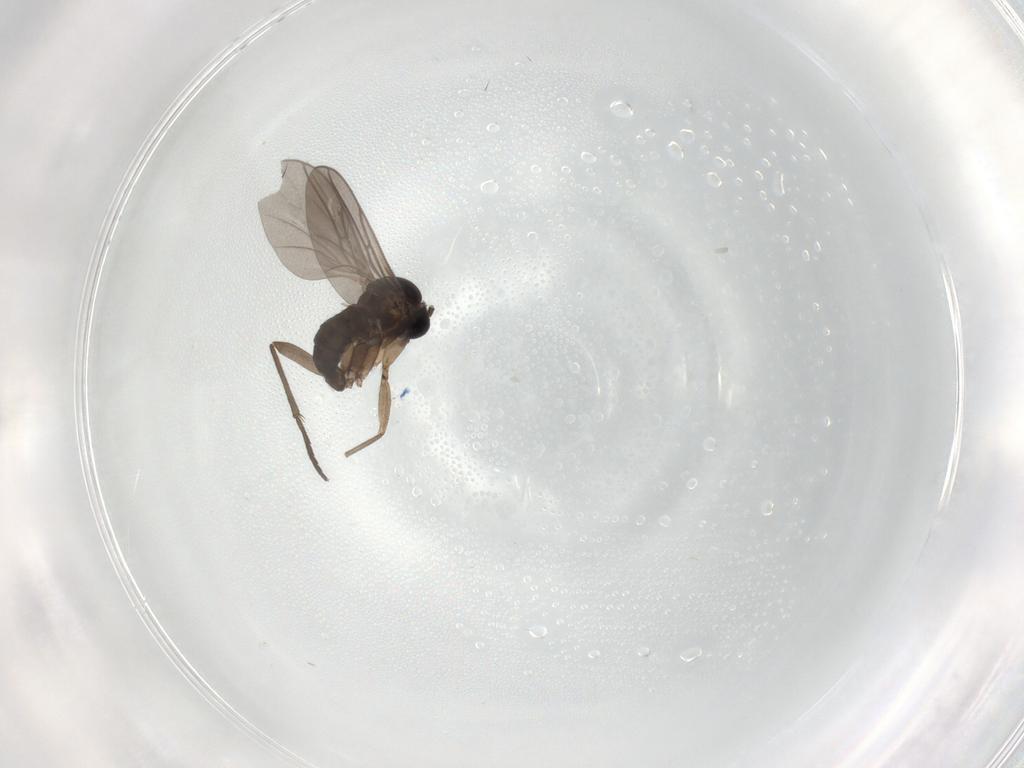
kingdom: Animalia
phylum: Arthropoda
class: Insecta
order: Diptera
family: Sciaridae
